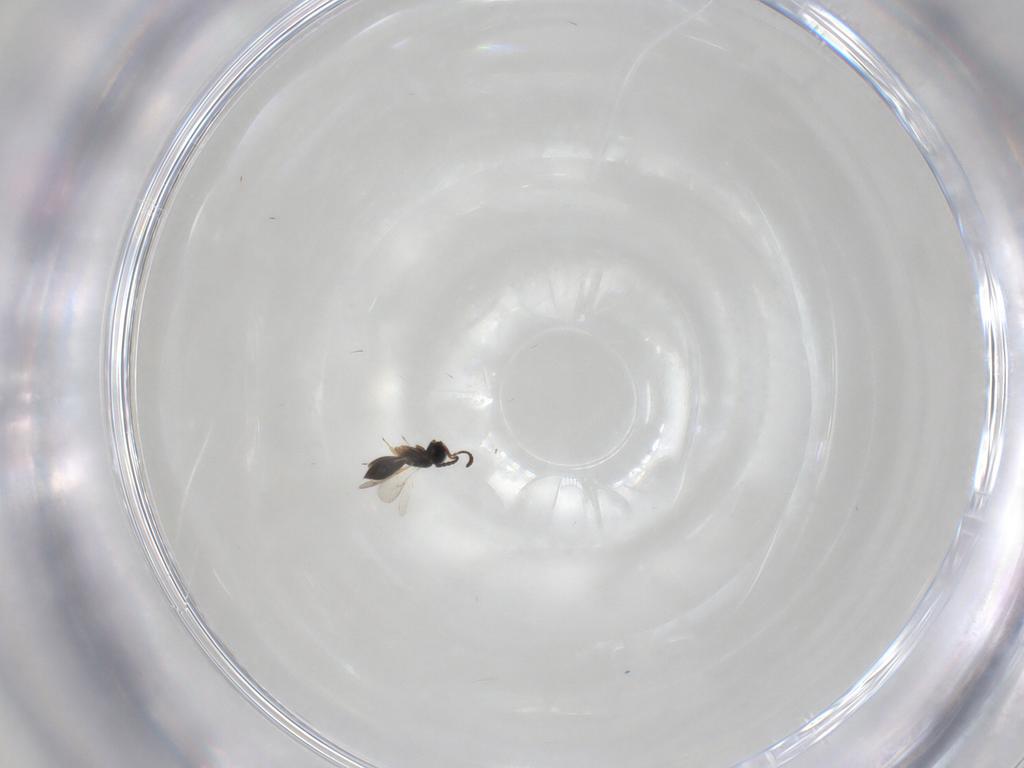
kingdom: Animalia
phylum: Arthropoda
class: Insecta
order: Hymenoptera
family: Scelionidae
